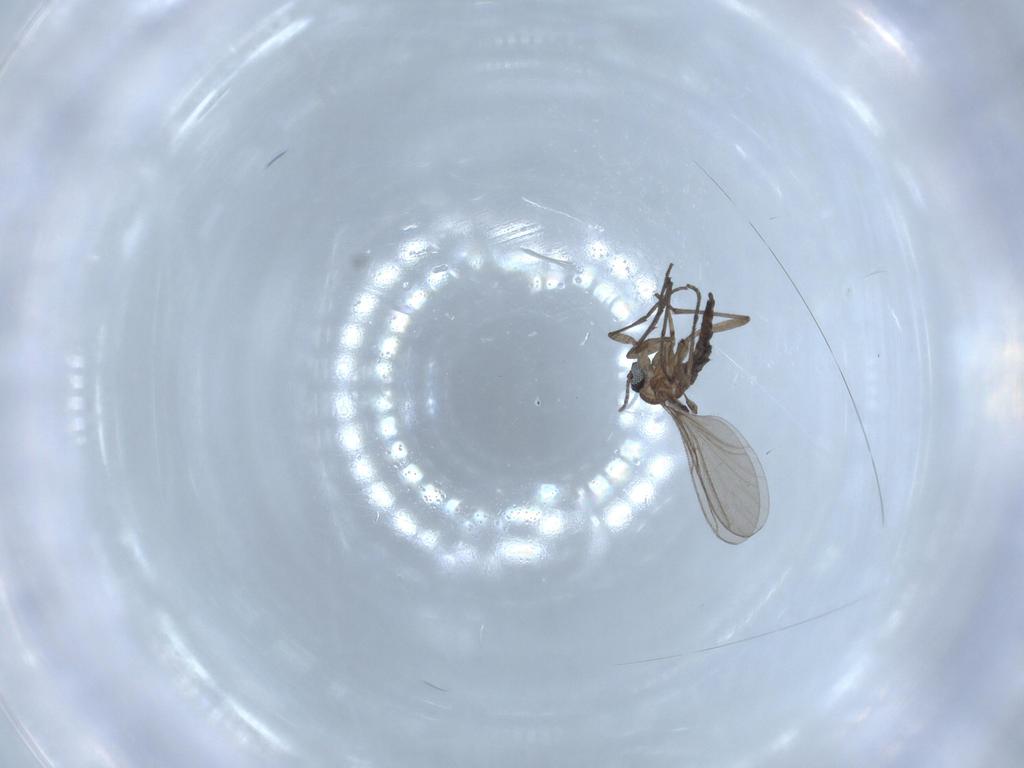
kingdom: Animalia
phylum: Arthropoda
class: Insecta
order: Diptera
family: Sciaridae
